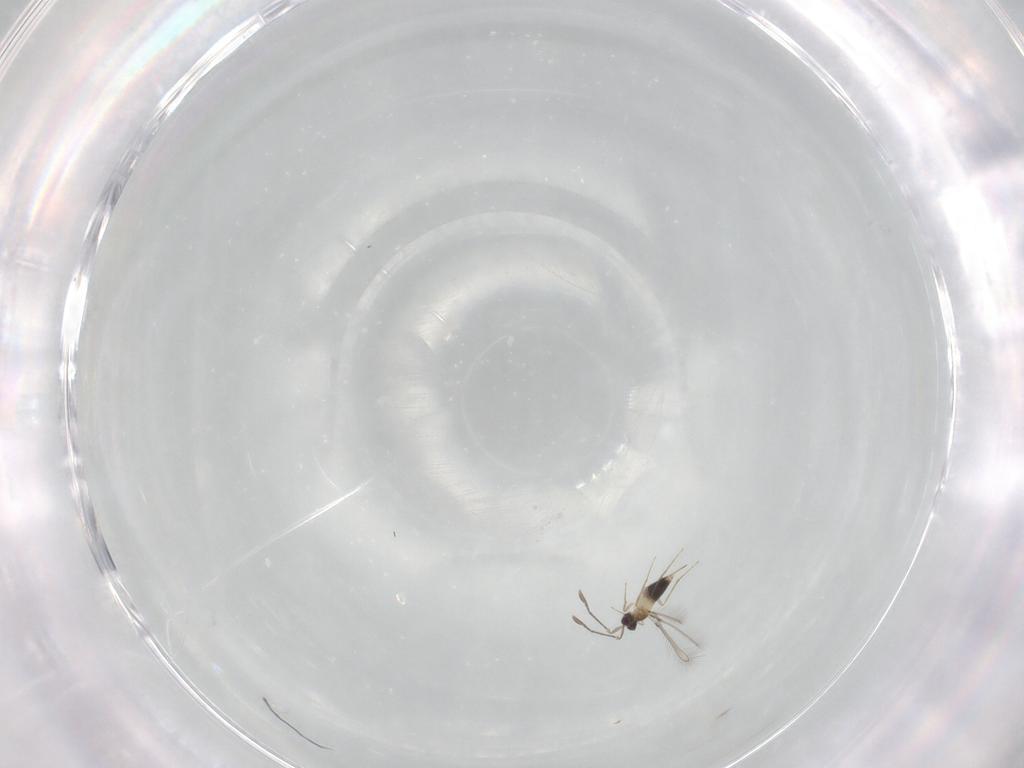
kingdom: Animalia
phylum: Arthropoda
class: Insecta
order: Hymenoptera
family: Mymaridae
